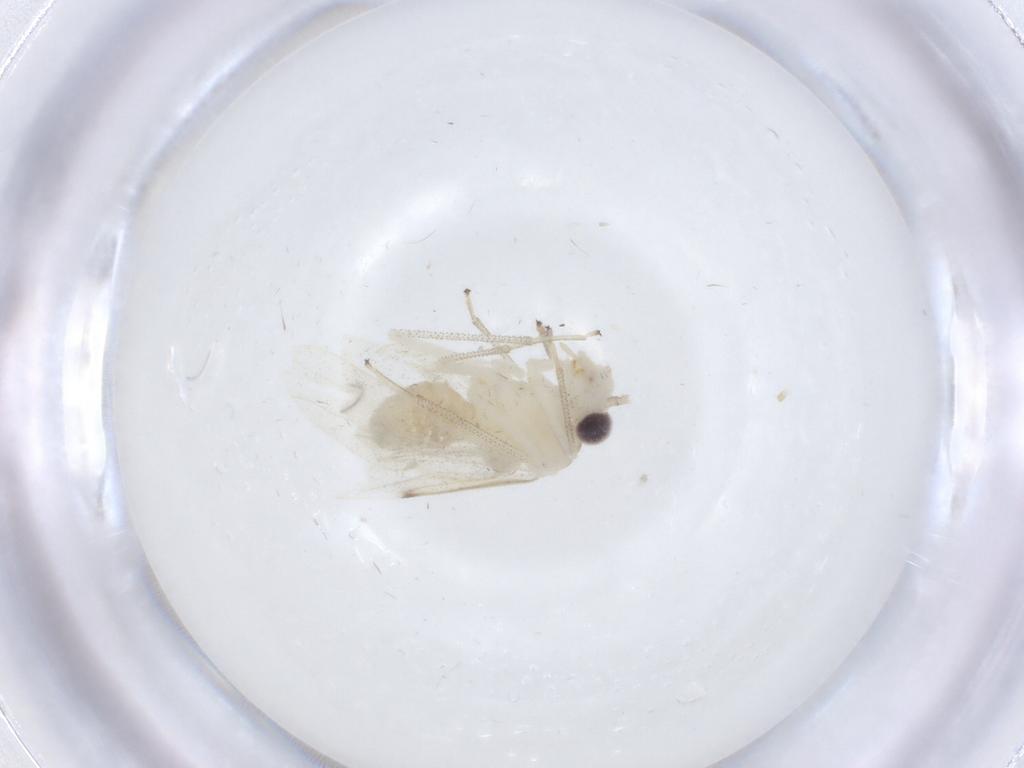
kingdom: Animalia
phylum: Arthropoda
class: Insecta
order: Psocodea
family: Caeciliusidae
